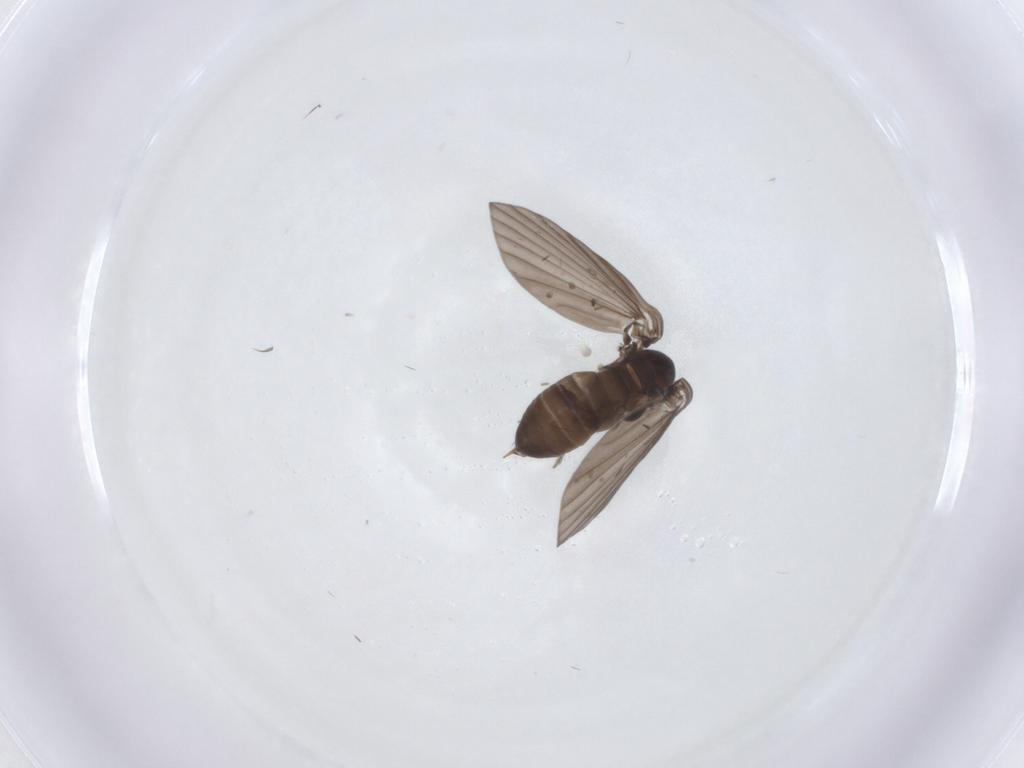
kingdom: Animalia
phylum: Arthropoda
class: Insecta
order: Diptera
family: Psychodidae
